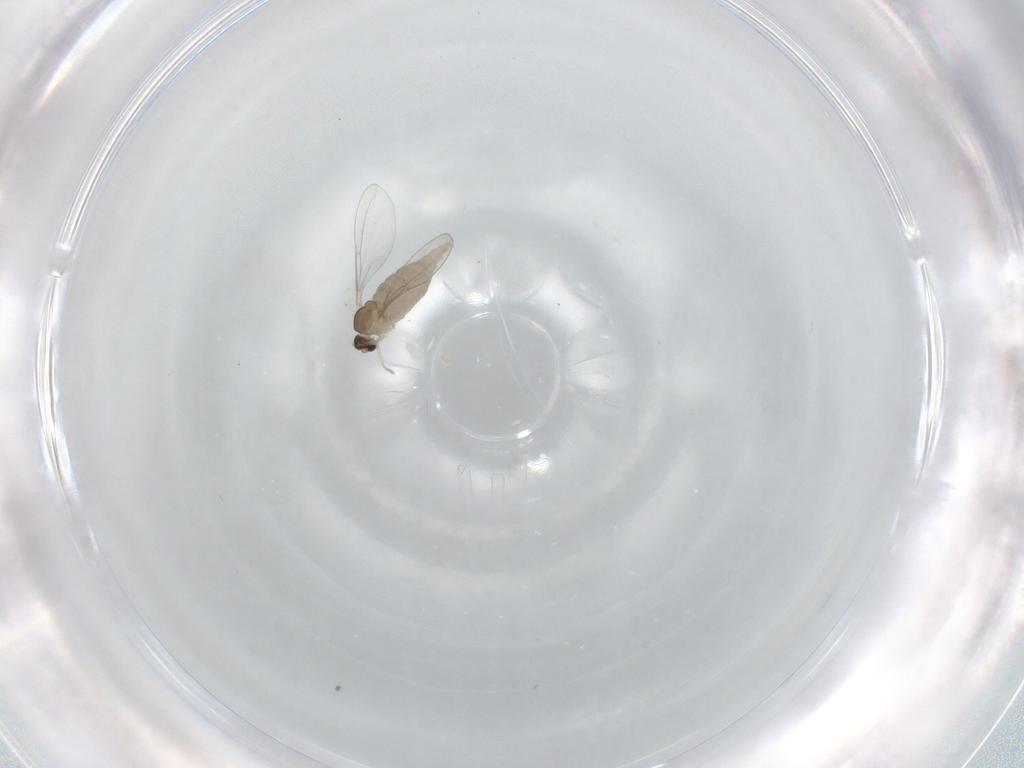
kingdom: Animalia
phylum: Arthropoda
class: Insecta
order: Diptera
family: Cecidomyiidae
